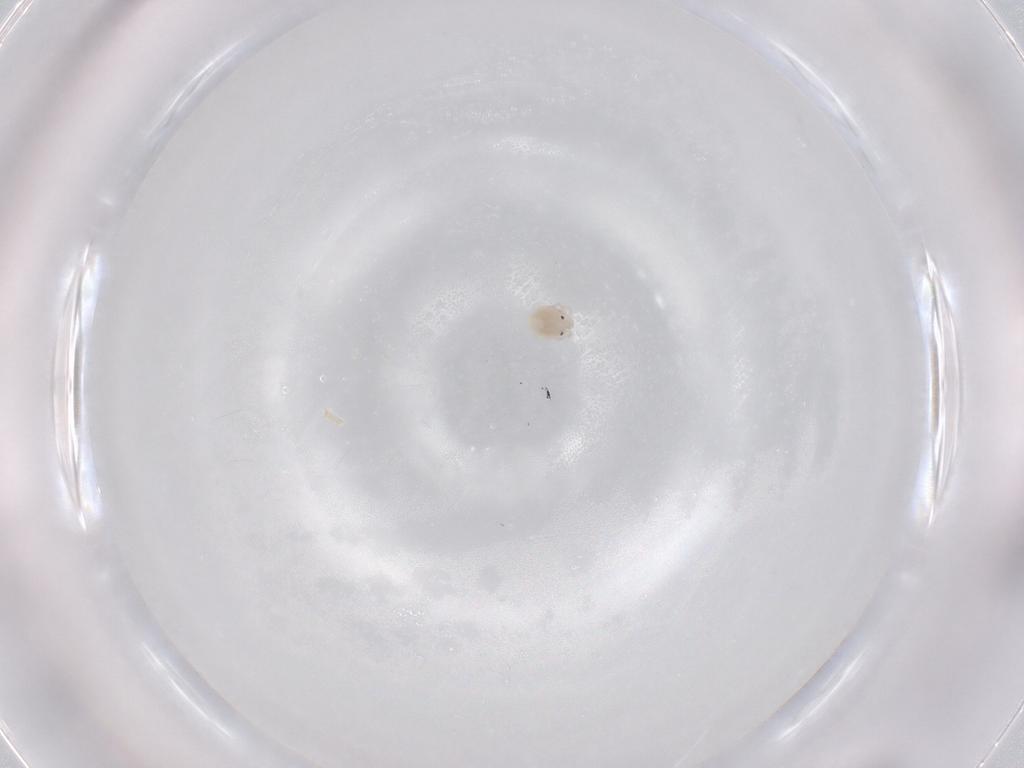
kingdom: Animalia
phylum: Arthropoda
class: Arachnida
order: Trombidiformes
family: Lebertiidae
